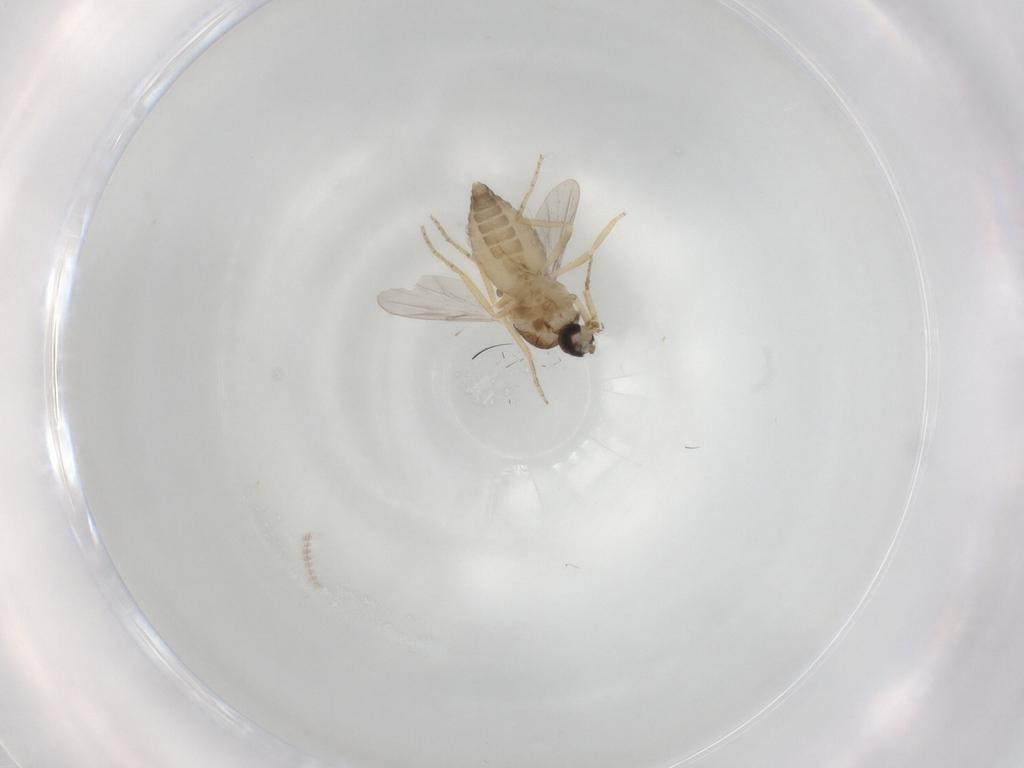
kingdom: Animalia
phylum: Arthropoda
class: Insecta
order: Diptera
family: Ceratopogonidae
